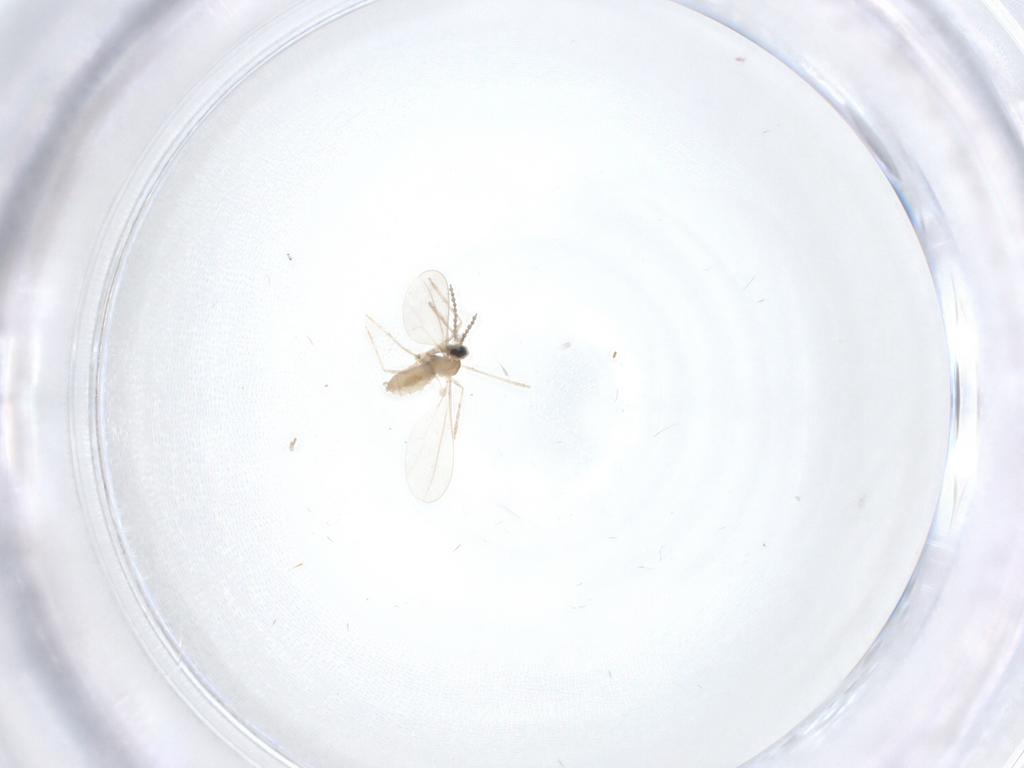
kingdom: Animalia
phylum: Arthropoda
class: Insecta
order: Diptera
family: Phoridae
